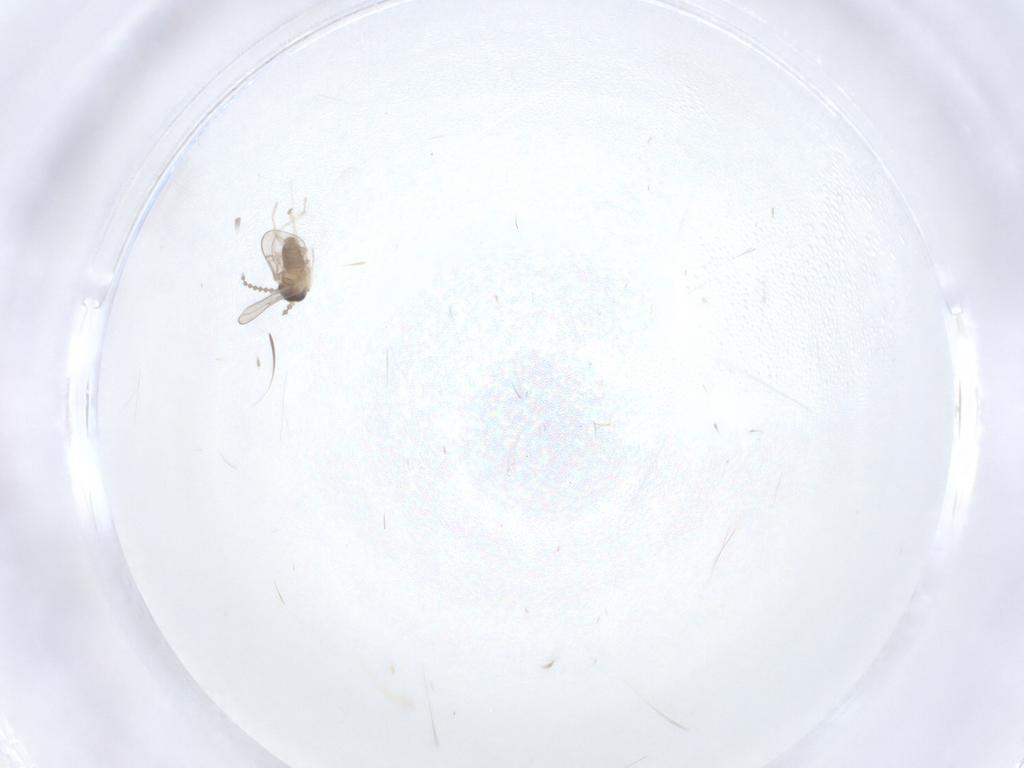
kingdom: Animalia
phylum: Arthropoda
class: Insecta
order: Diptera
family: Cecidomyiidae
